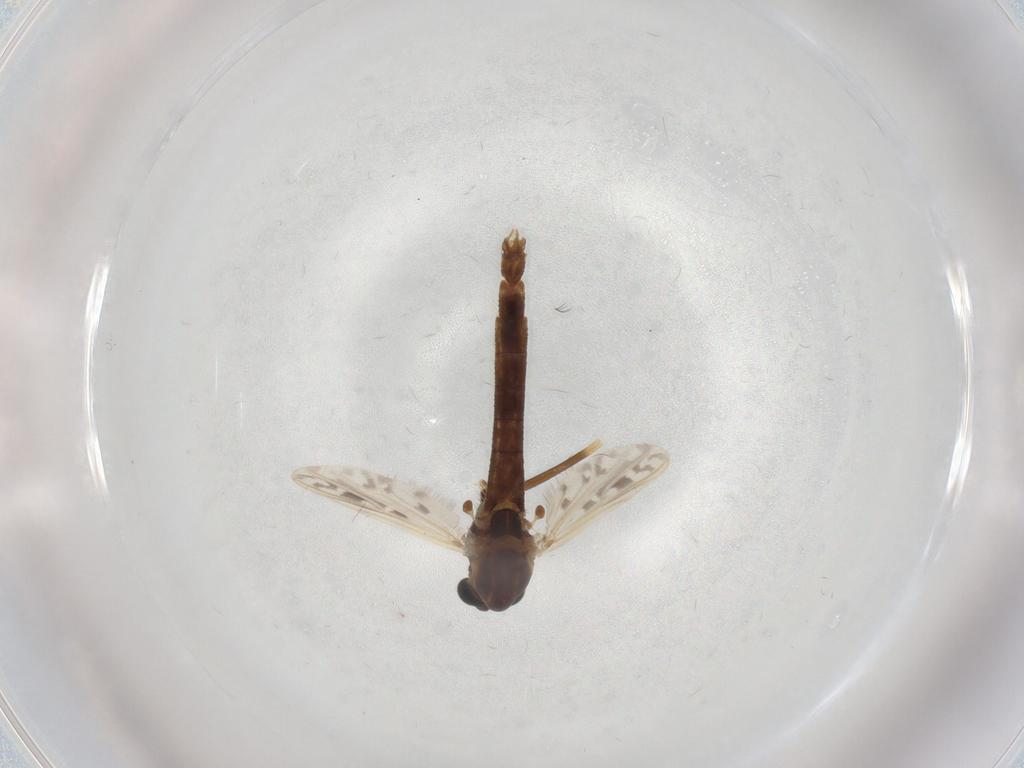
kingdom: Animalia
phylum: Arthropoda
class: Insecta
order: Diptera
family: Chironomidae
